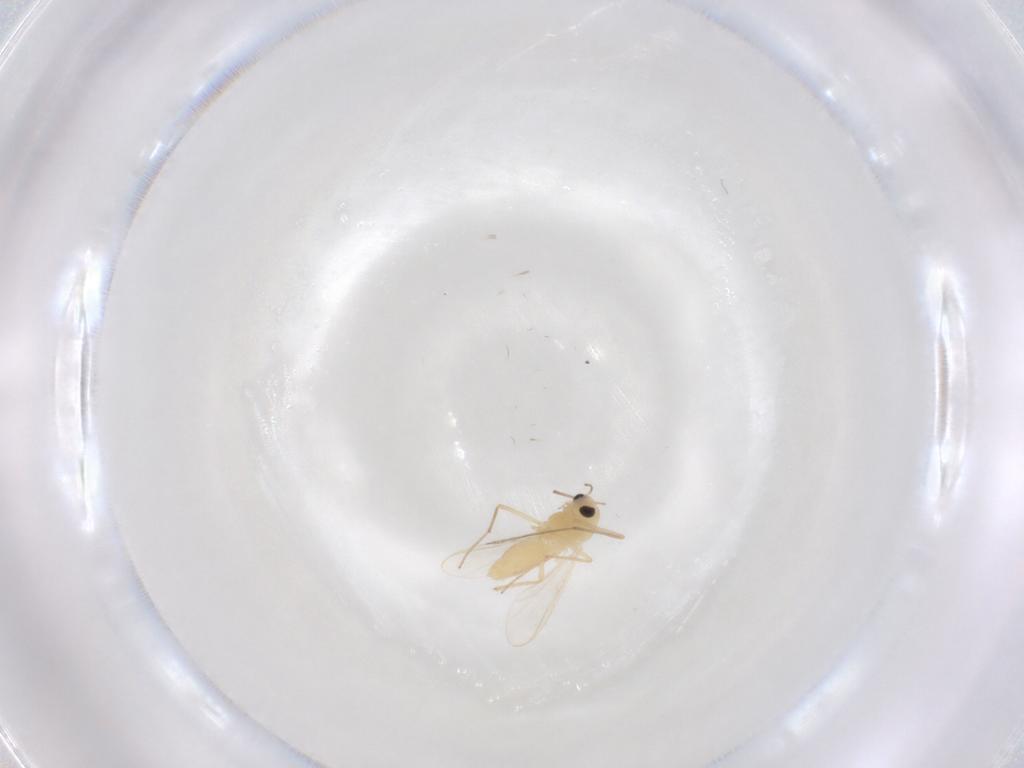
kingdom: Animalia
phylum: Arthropoda
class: Insecta
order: Diptera
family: Chironomidae
